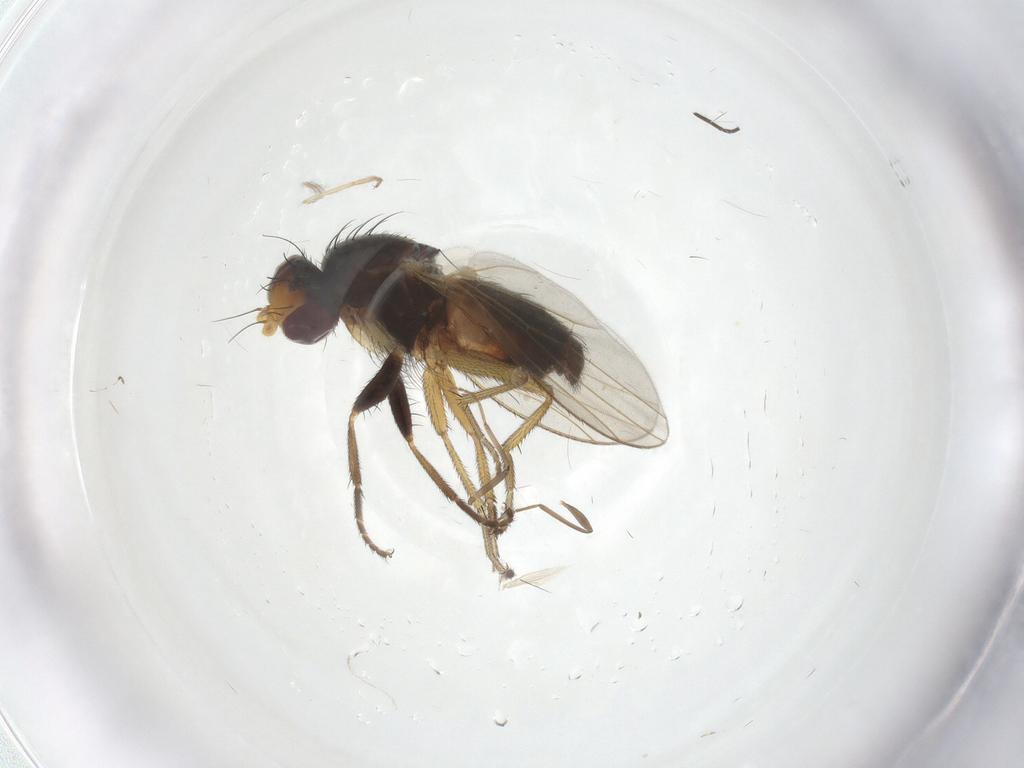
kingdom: Animalia
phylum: Arthropoda
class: Insecta
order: Diptera
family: Heleomyzidae
